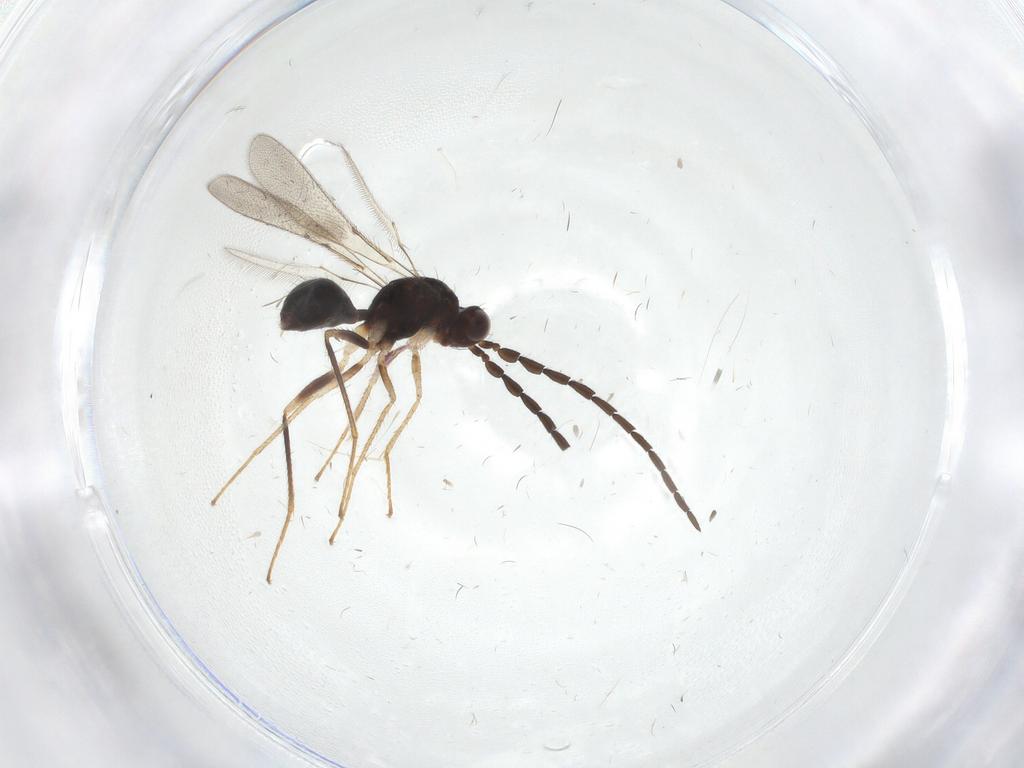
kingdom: Animalia
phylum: Arthropoda
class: Insecta
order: Hymenoptera
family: Mymaridae
